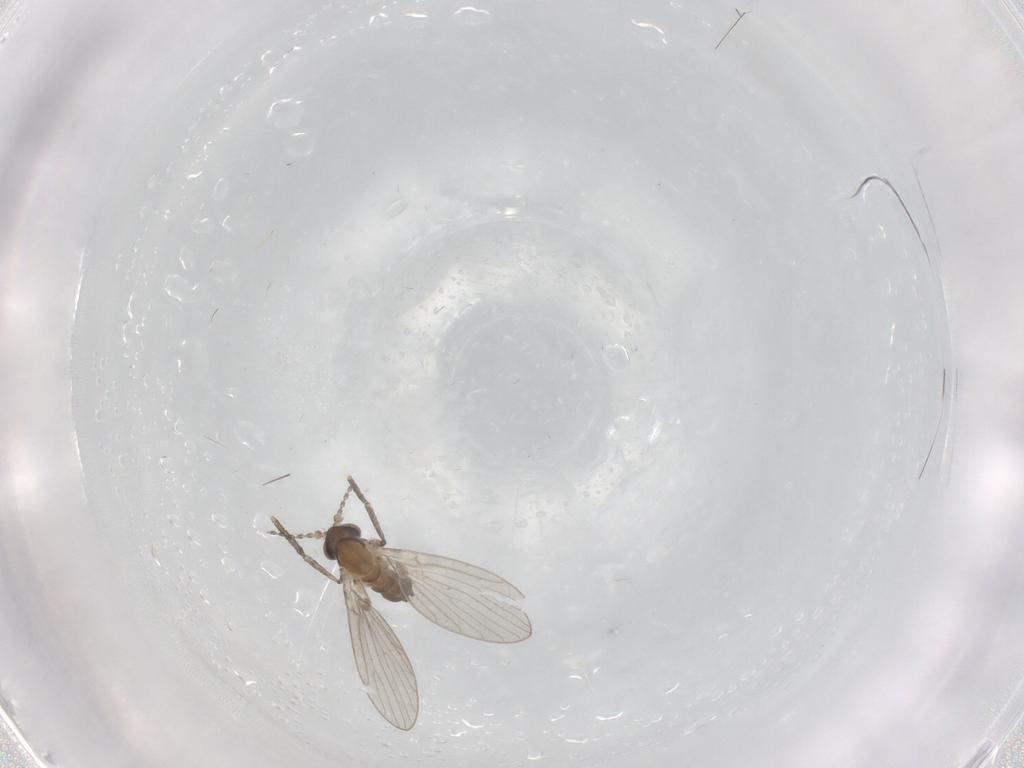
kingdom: Animalia
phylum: Arthropoda
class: Insecta
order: Diptera
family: Psychodidae
